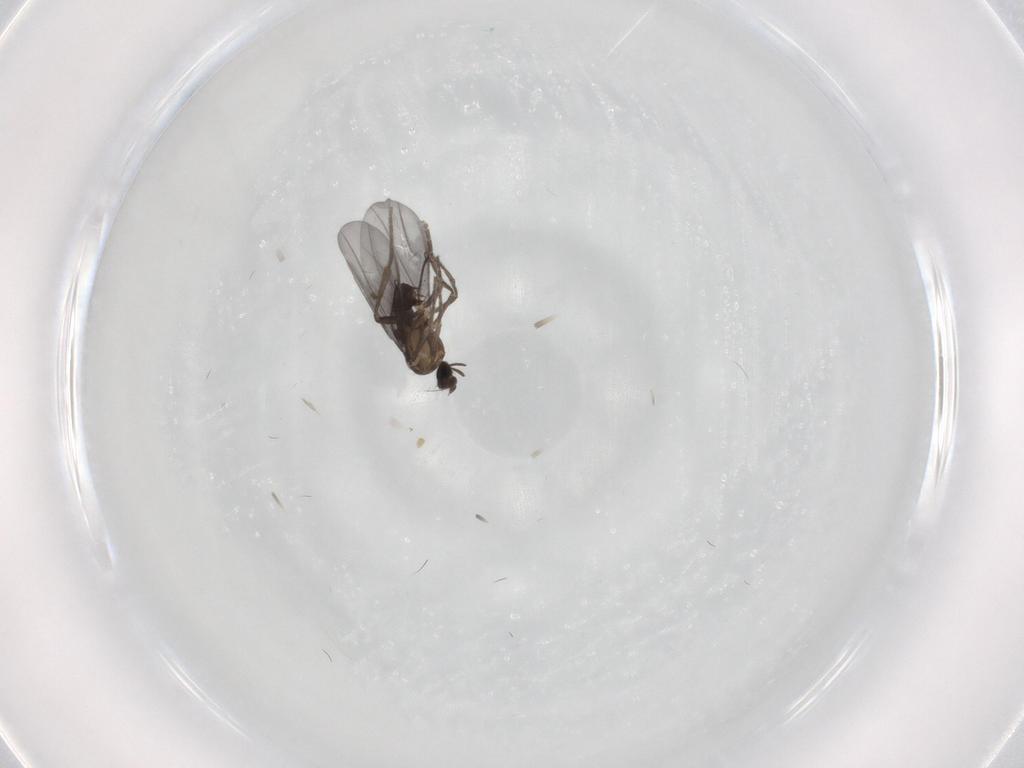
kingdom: Animalia
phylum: Arthropoda
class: Insecta
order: Diptera
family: Phoridae
